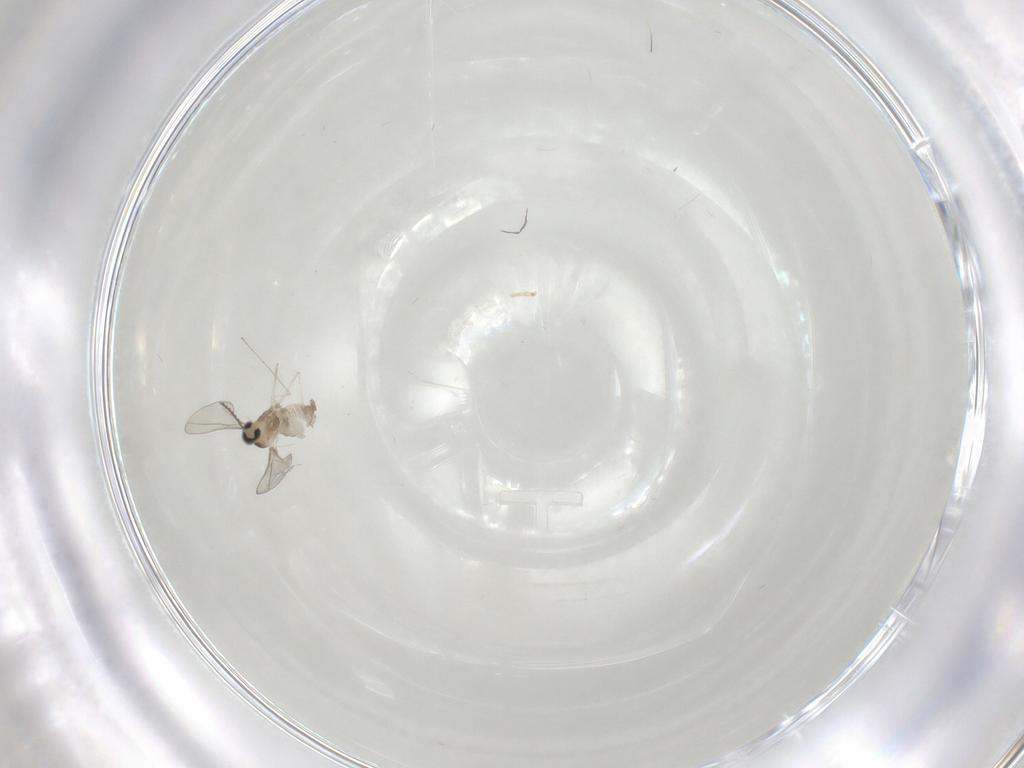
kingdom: Animalia
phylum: Arthropoda
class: Insecta
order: Diptera
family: Cecidomyiidae
